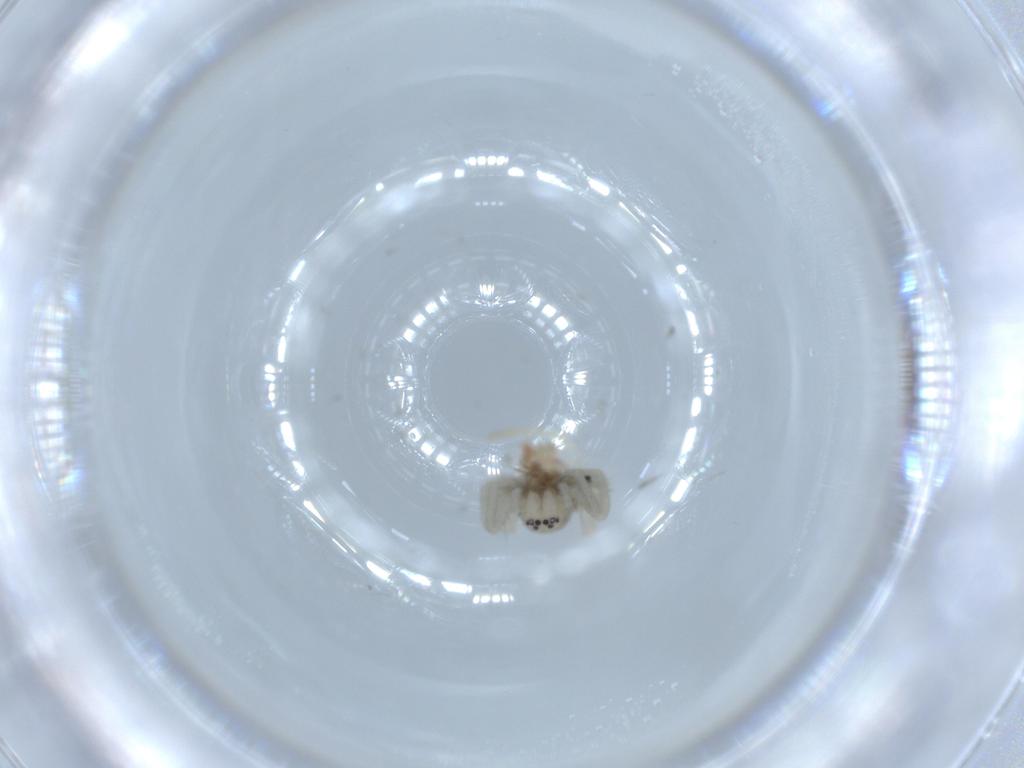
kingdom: Animalia
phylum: Arthropoda
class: Arachnida
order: Araneae
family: Clubionidae
